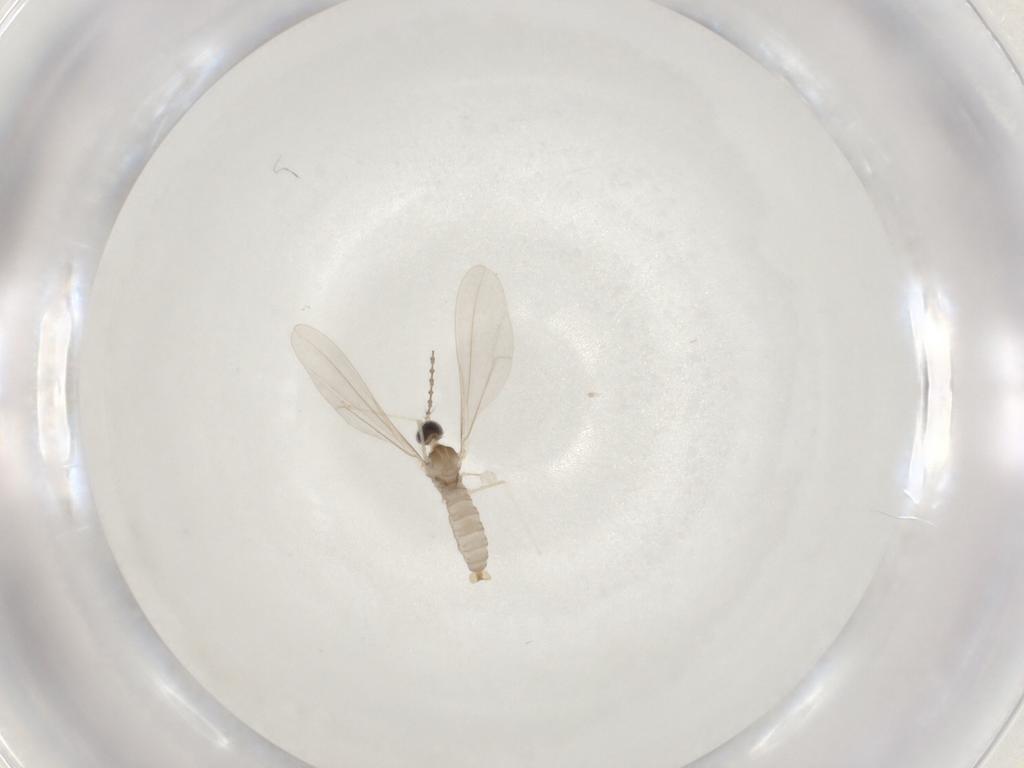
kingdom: Animalia
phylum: Arthropoda
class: Insecta
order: Diptera
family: Cecidomyiidae
